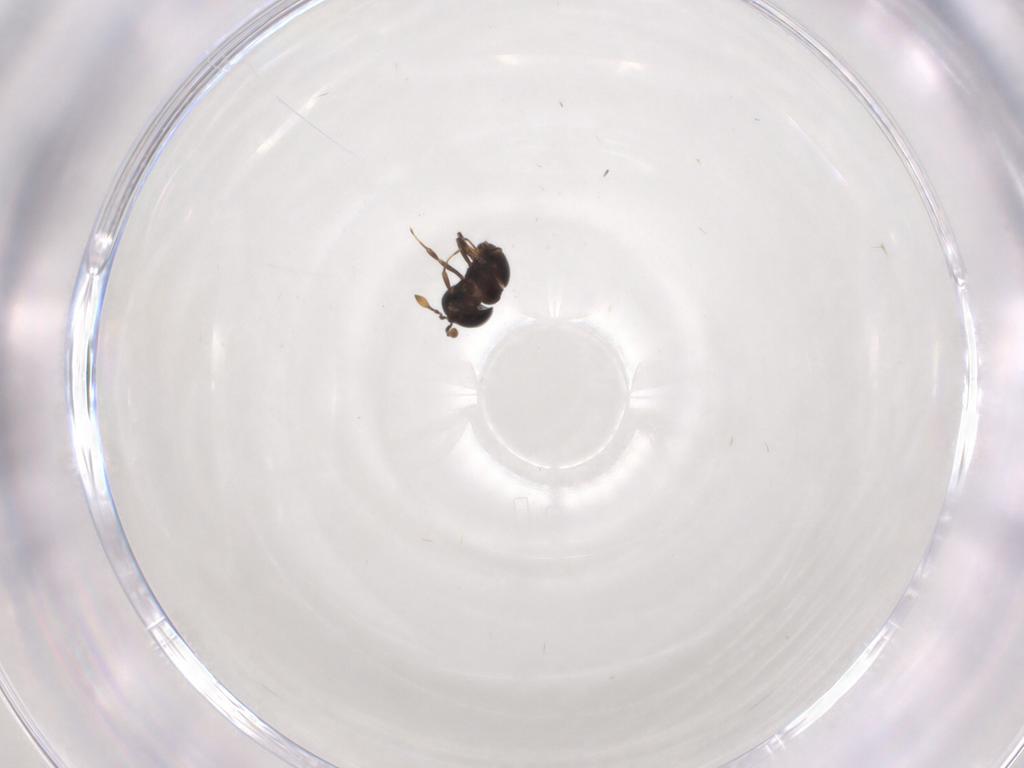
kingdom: Animalia
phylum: Arthropoda
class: Insecta
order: Hymenoptera
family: Scelionidae
